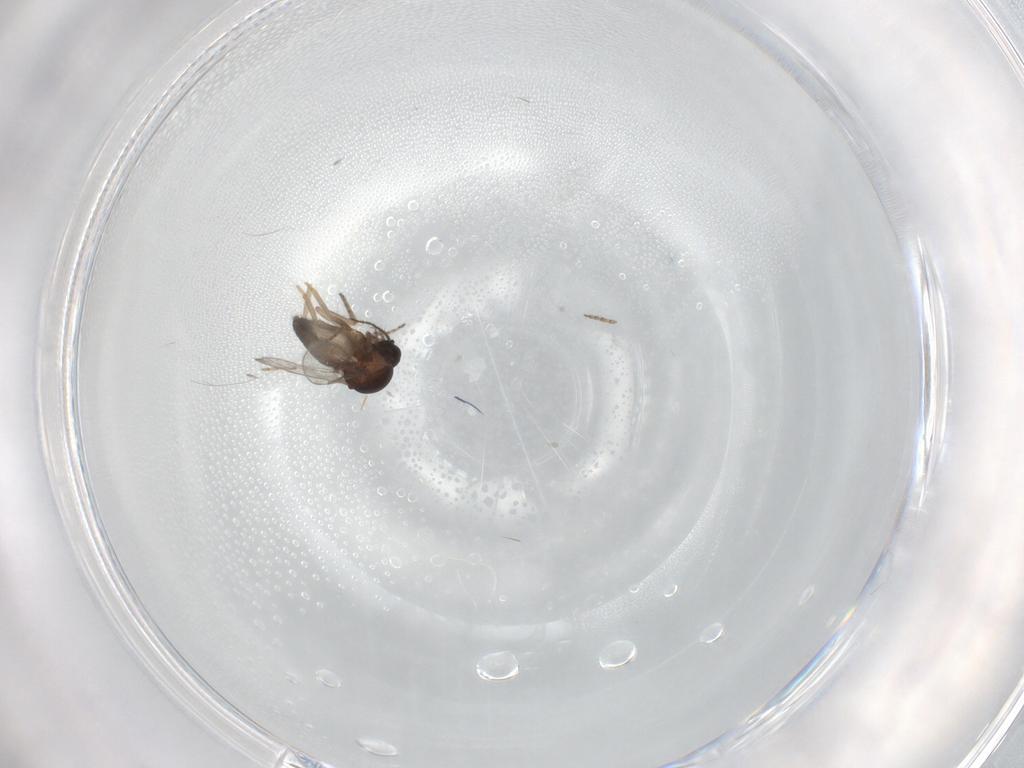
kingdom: Animalia
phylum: Arthropoda
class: Insecta
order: Diptera
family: Ceratopogonidae
